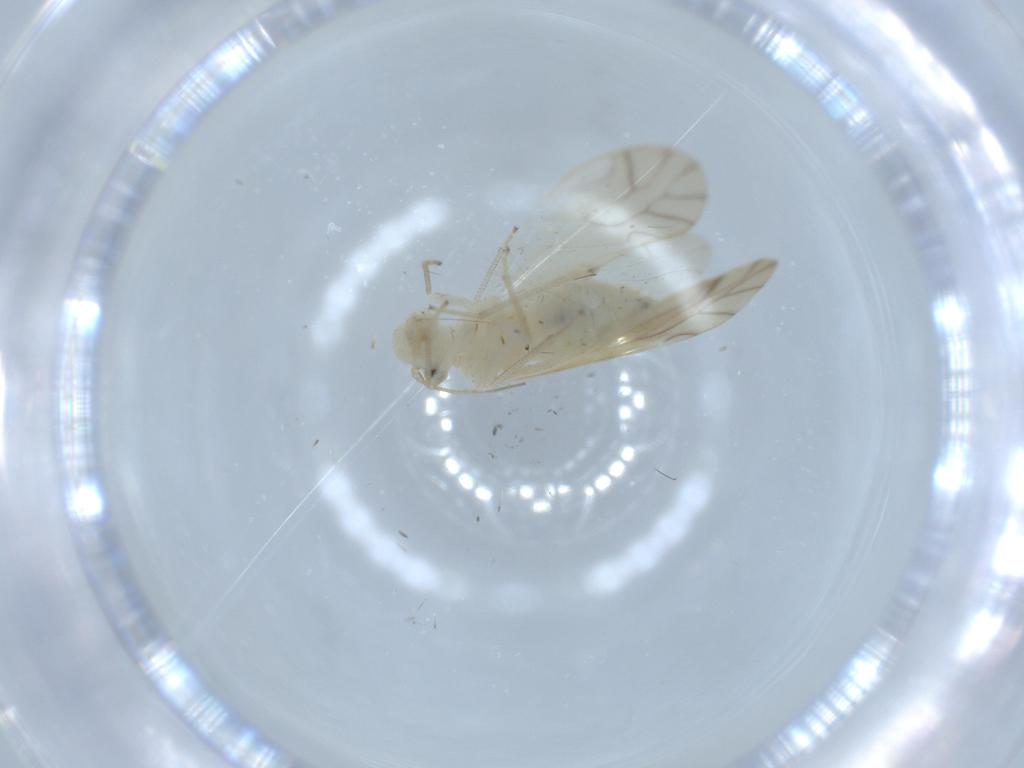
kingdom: Animalia
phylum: Arthropoda
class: Insecta
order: Psocodea
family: Caeciliusidae
